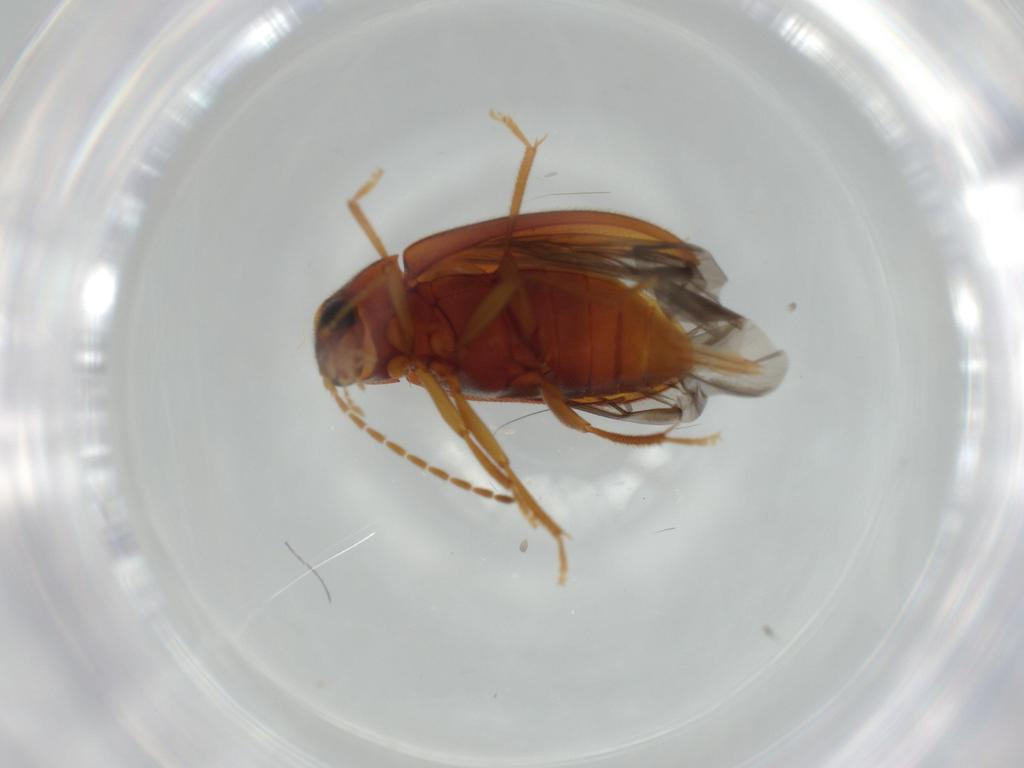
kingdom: Animalia
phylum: Arthropoda
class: Insecta
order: Coleoptera
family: Ptilodactylidae
